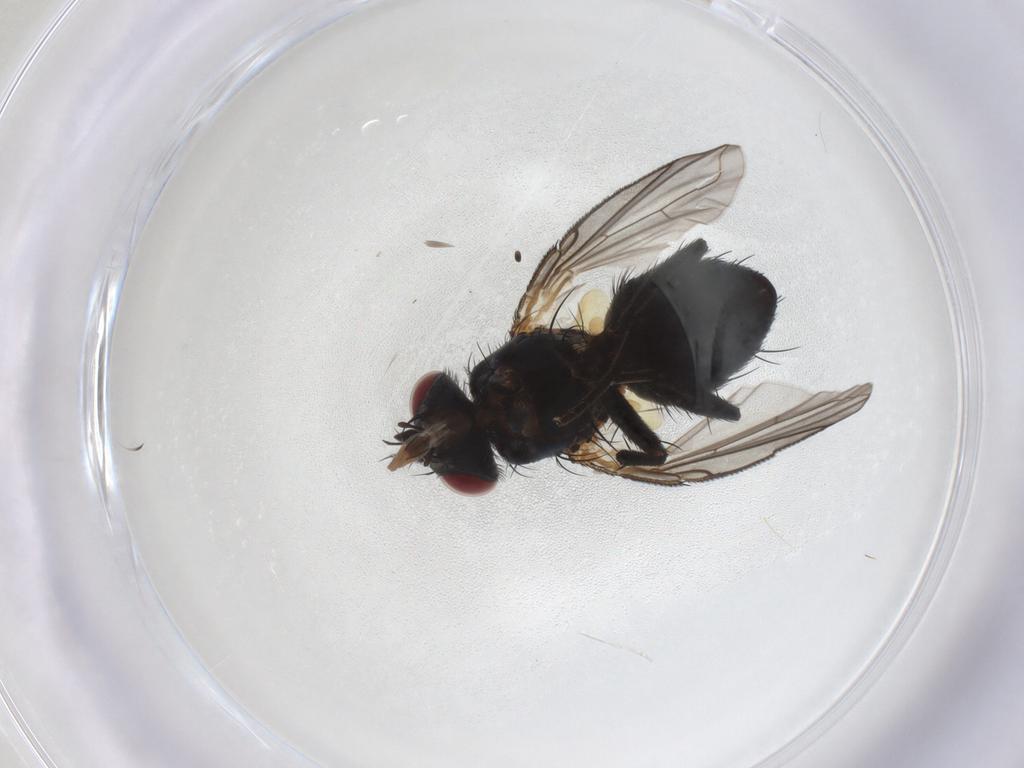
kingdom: Animalia
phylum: Arthropoda
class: Insecta
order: Diptera
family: Tachinidae
